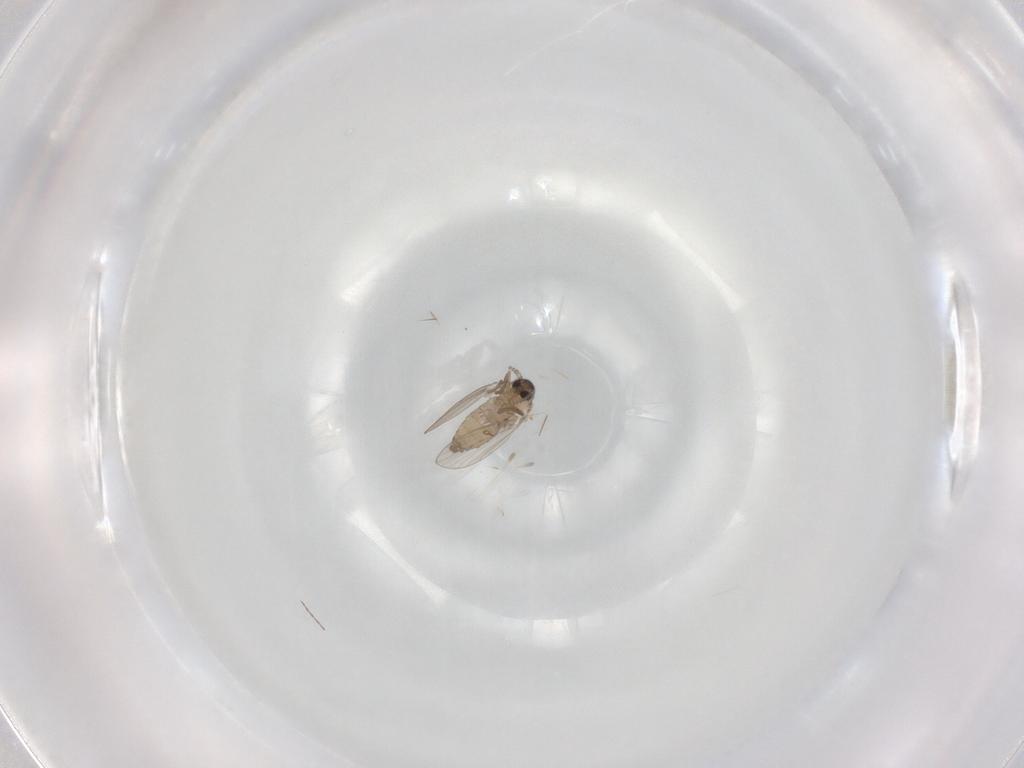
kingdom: Animalia
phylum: Arthropoda
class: Insecta
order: Diptera
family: Psychodidae
